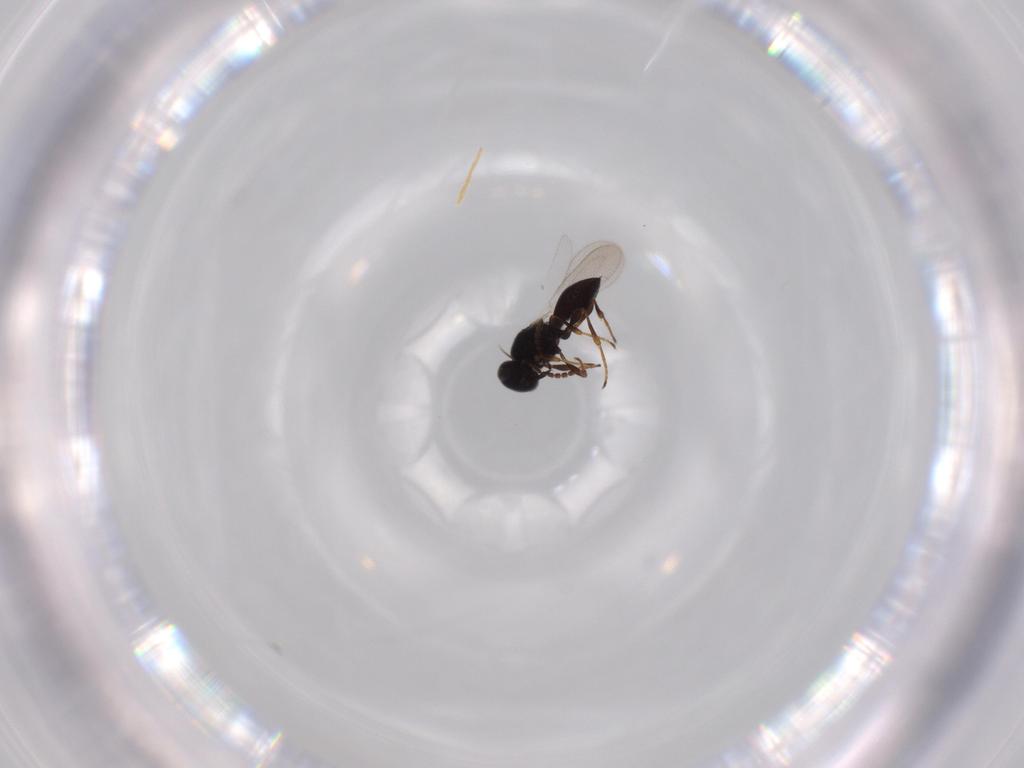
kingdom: Animalia
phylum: Arthropoda
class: Insecta
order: Hymenoptera
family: Platygastridae
